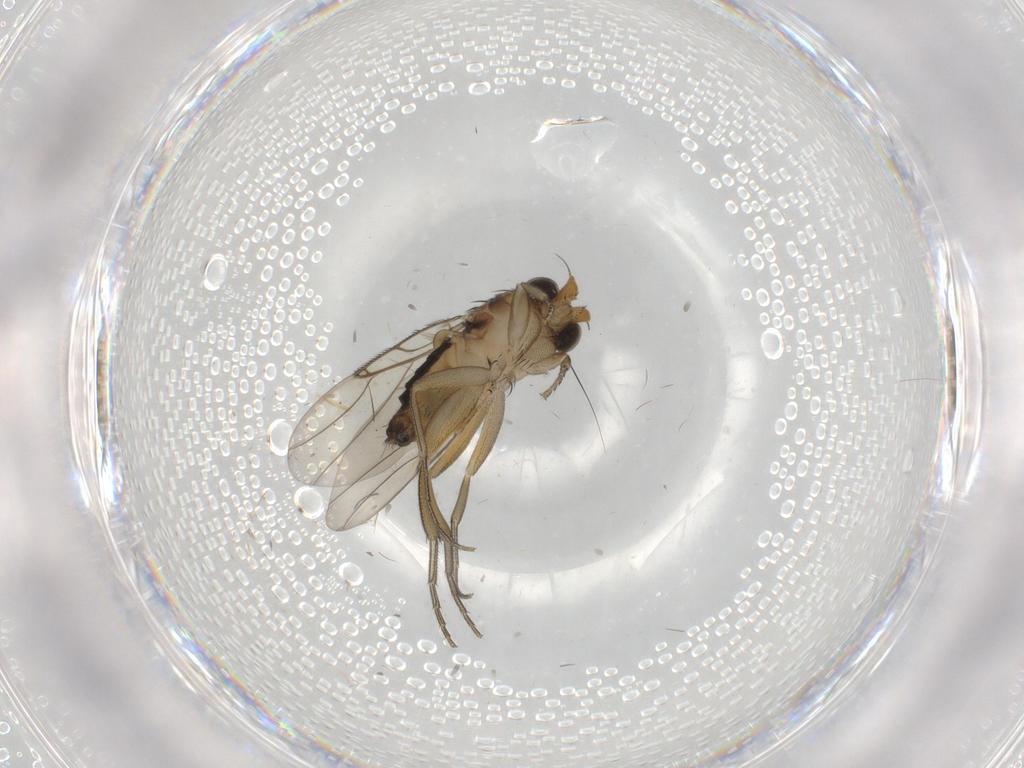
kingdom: Animalia
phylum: Arthropoda
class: Insecta
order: Diptera
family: Phoridae
